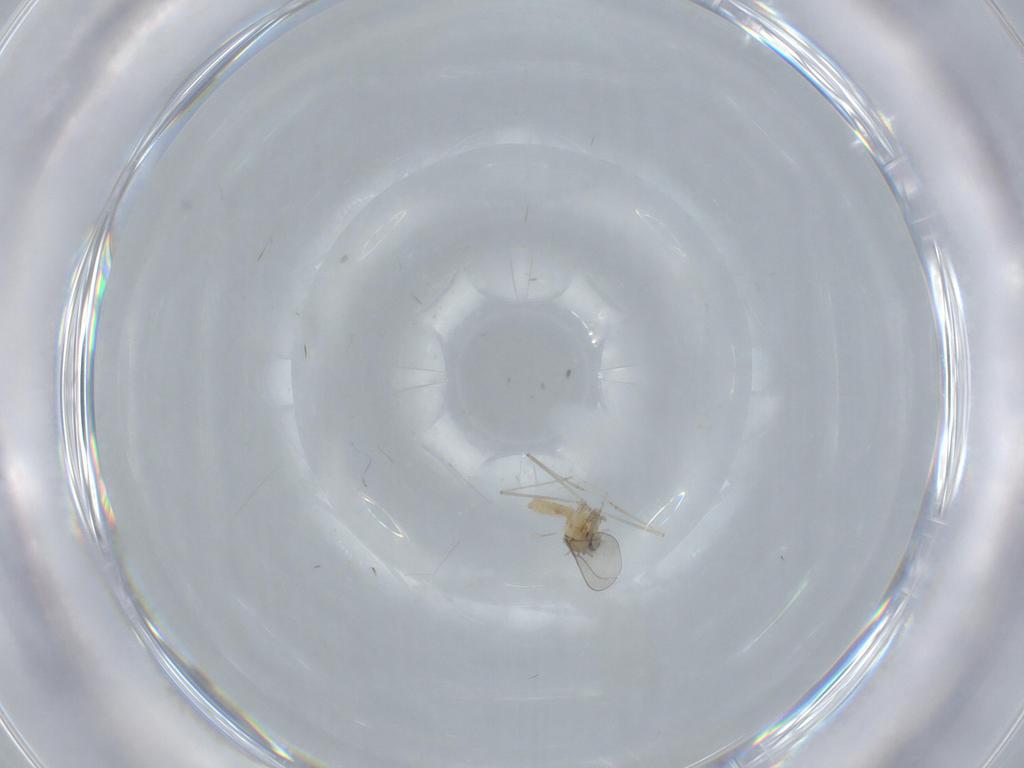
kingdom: Animalia
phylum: Arthropoda
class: Insecta
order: Diptera
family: Cecidomyiidae
